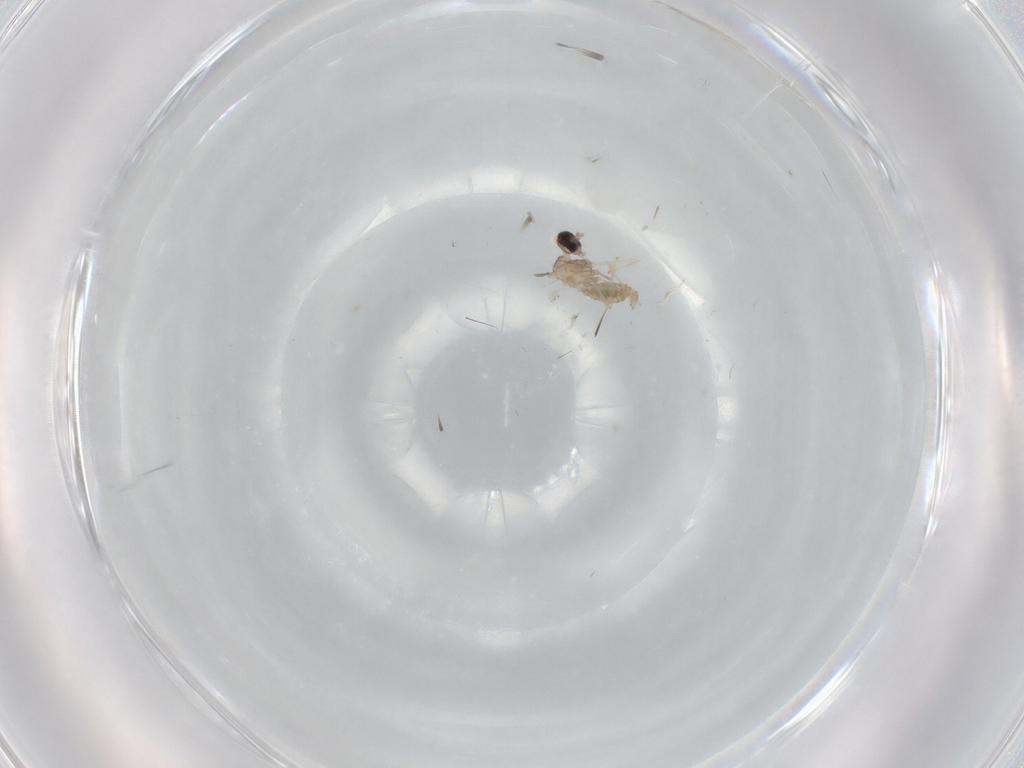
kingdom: Animalia
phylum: Arthropoda
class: Insecta
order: Diptera
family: Cecidomyiidae
